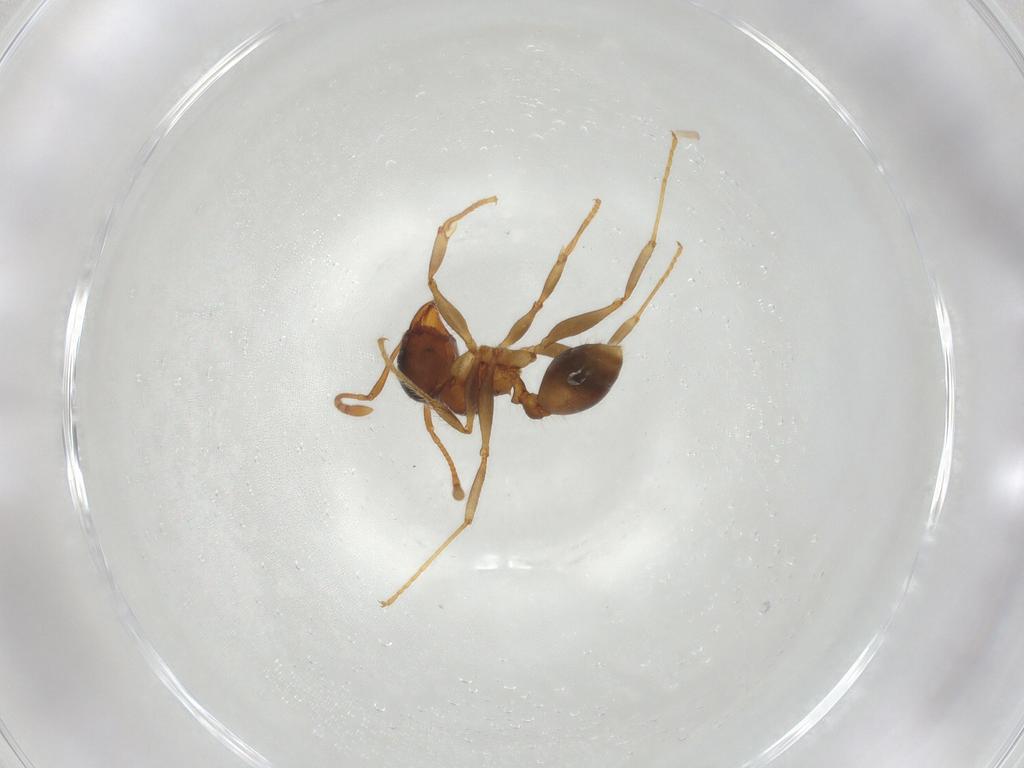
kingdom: Animalia
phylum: Arthropoda
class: Insecta
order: Hymenoptera
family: Formicidae
